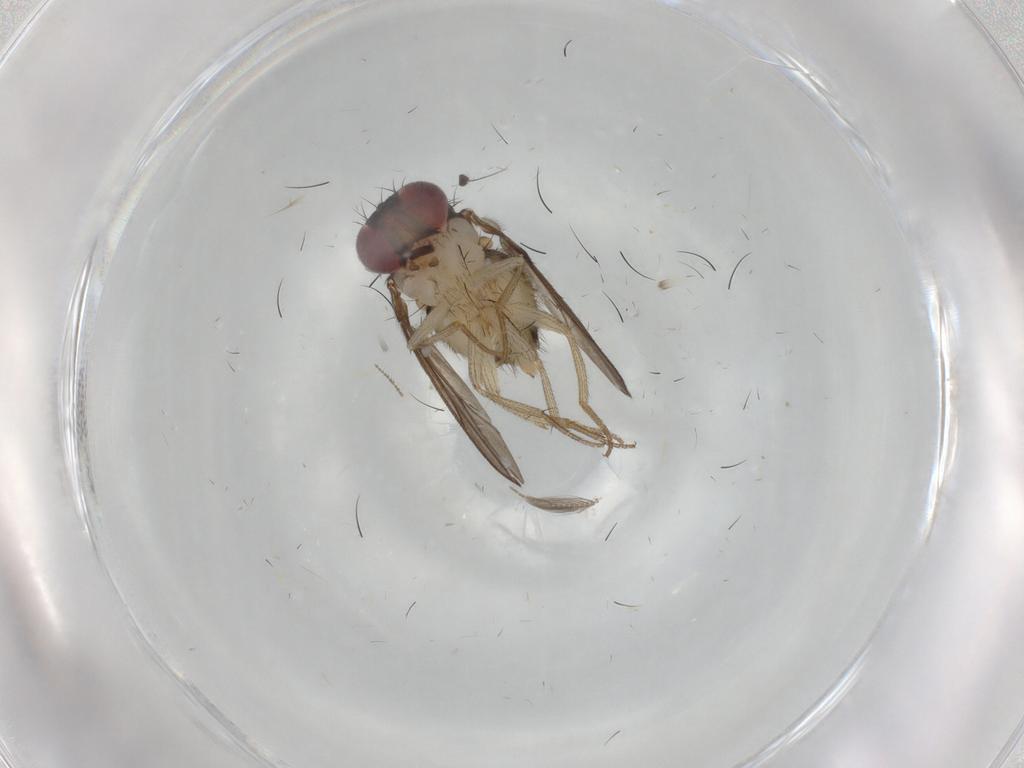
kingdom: Animalia
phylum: Arthropoda
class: Insecta
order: Diptera
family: Drosophilidae
